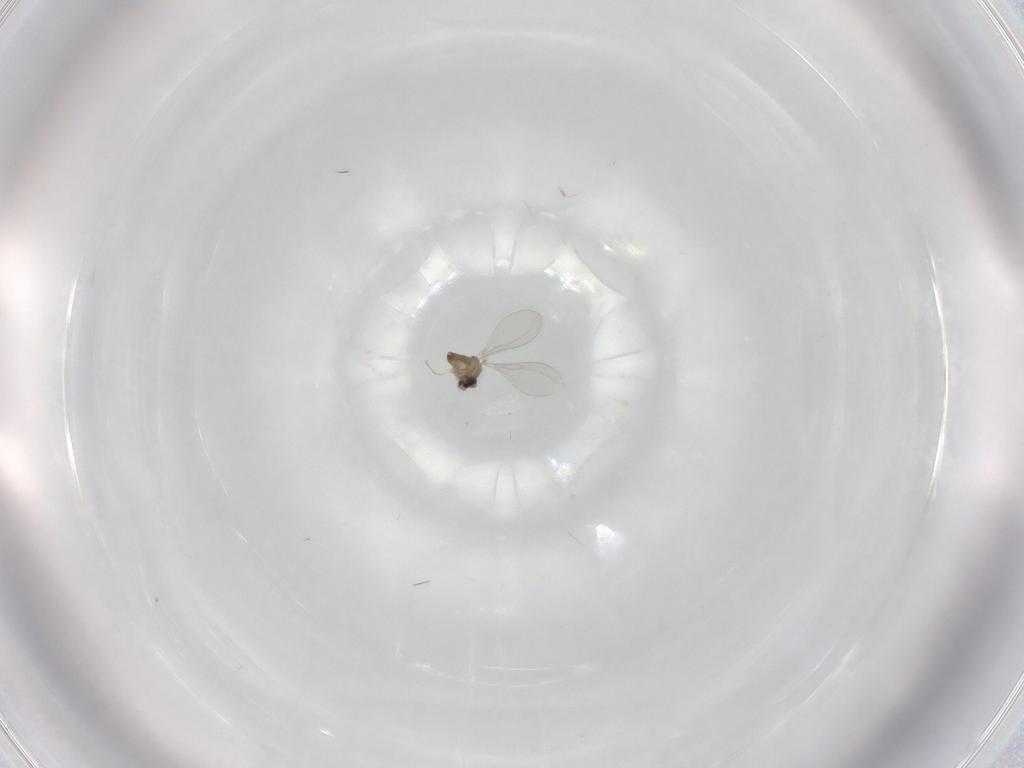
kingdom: Animalia
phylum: Arthropoda
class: Insecta
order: Diptera
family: Cecidomyiidae
